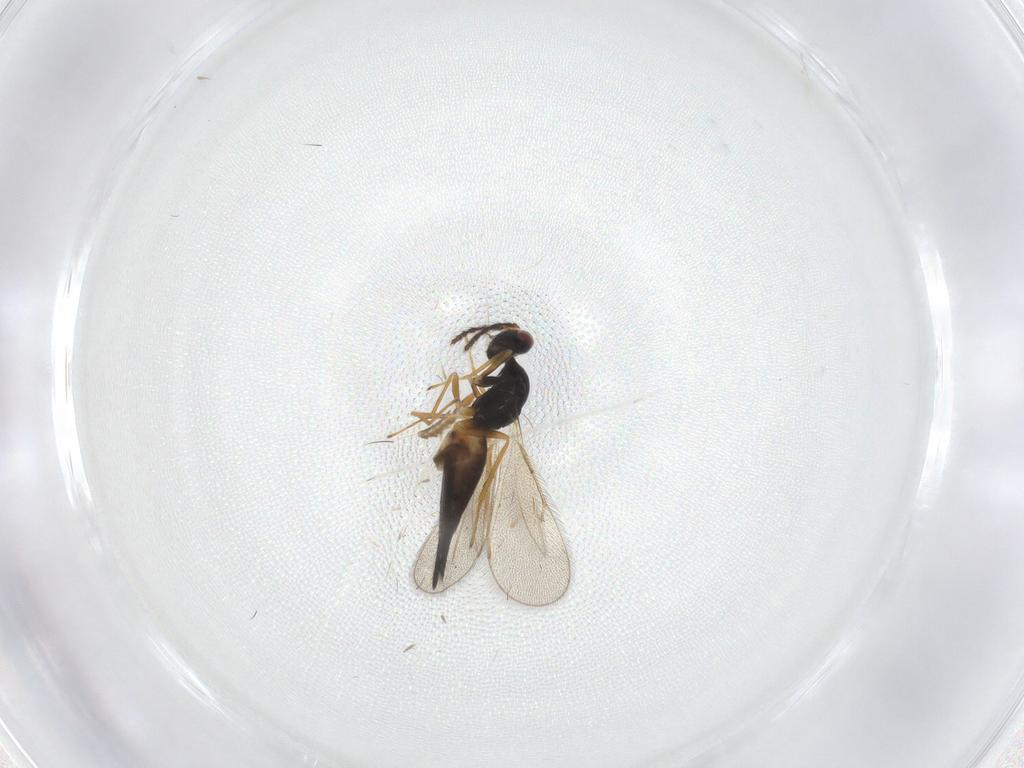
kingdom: Animalia
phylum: Arthropoda
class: Insecta
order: Hymenoptera
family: Eulophidae
